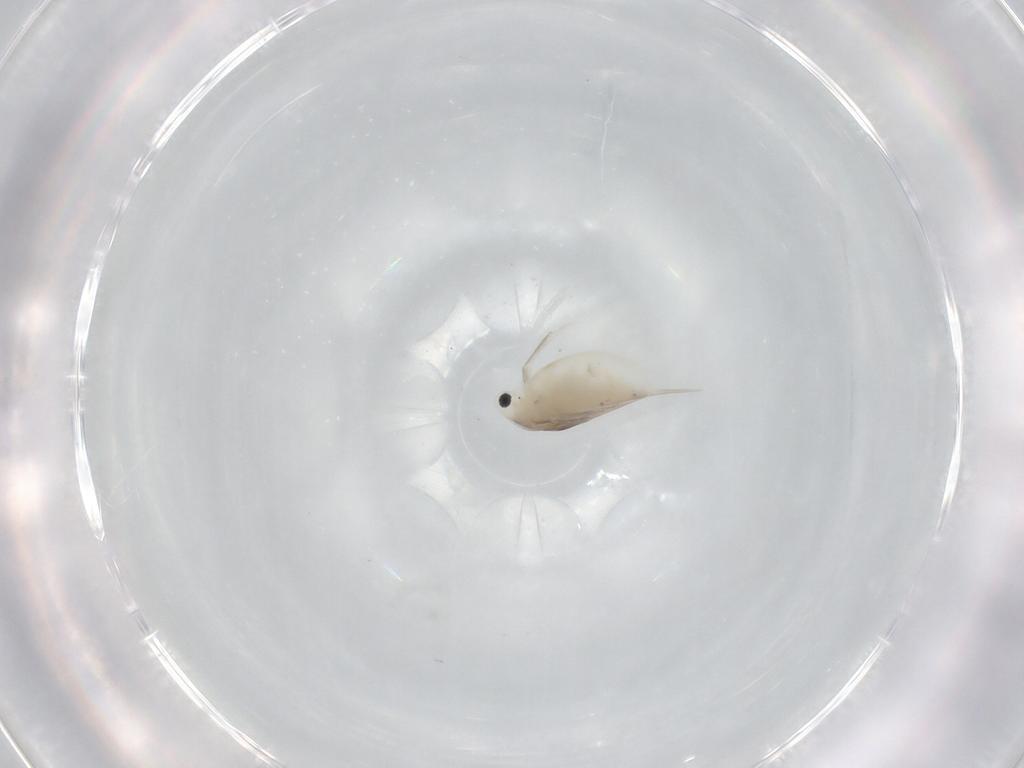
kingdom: Animalia
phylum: Arthropoda
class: Branchiopoda
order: Diplostraca
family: Daphniidae
